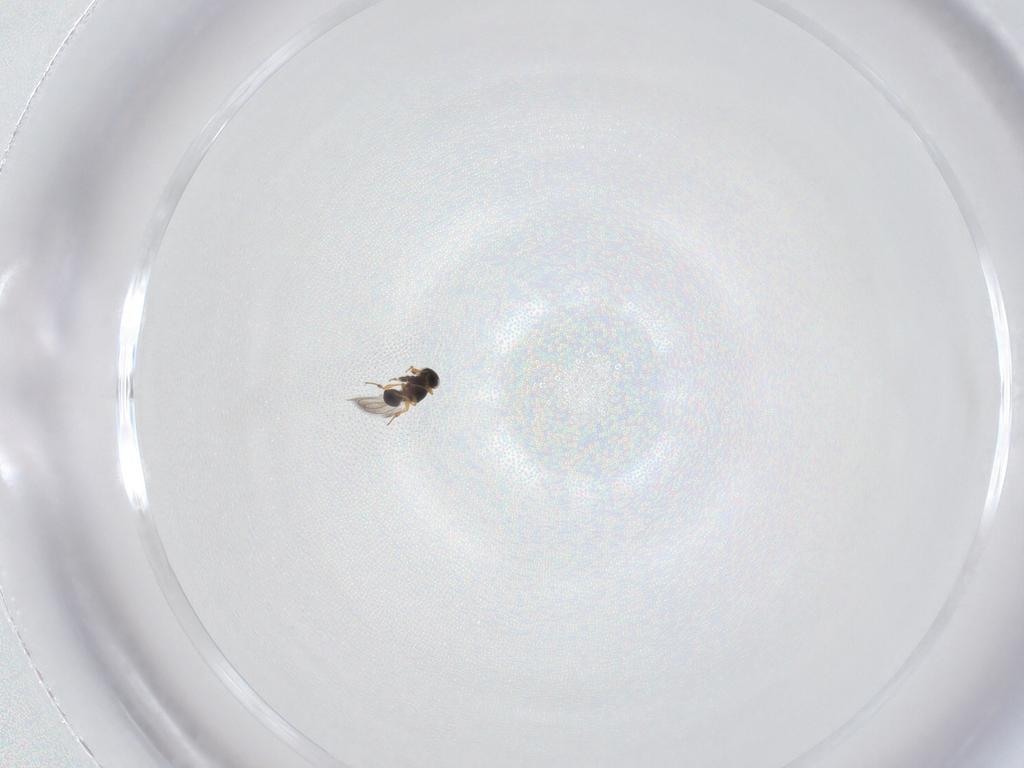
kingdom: Animalia
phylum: Arthropoda
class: Insecta
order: Hymenoptera
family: Platygastridae
